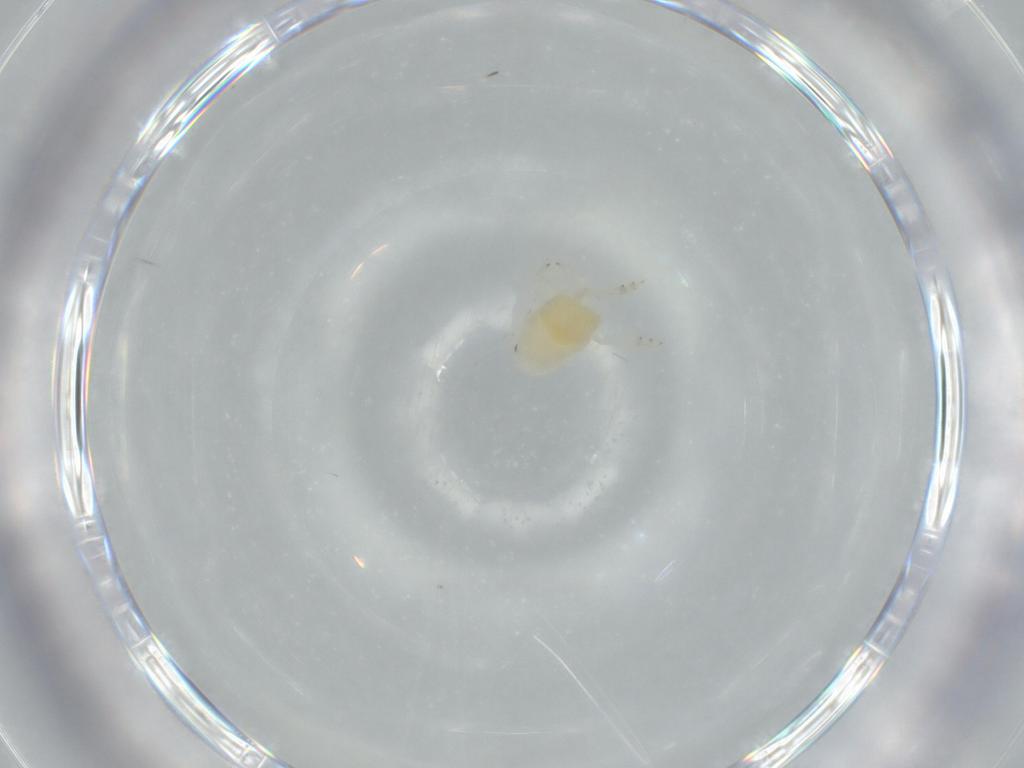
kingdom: Animalia
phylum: Arthropoda
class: Insecta
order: Hemiptera
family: Flatidae
